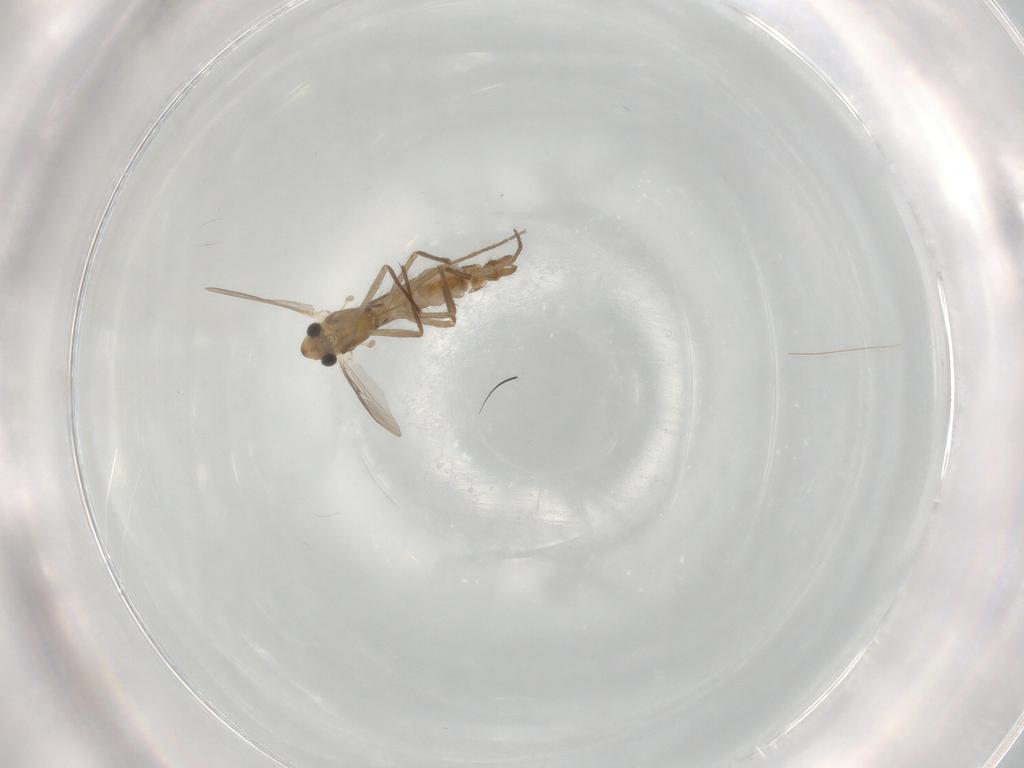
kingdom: Animalia
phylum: Arthropoda
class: Insecta
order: Diptera
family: Chironomidae
